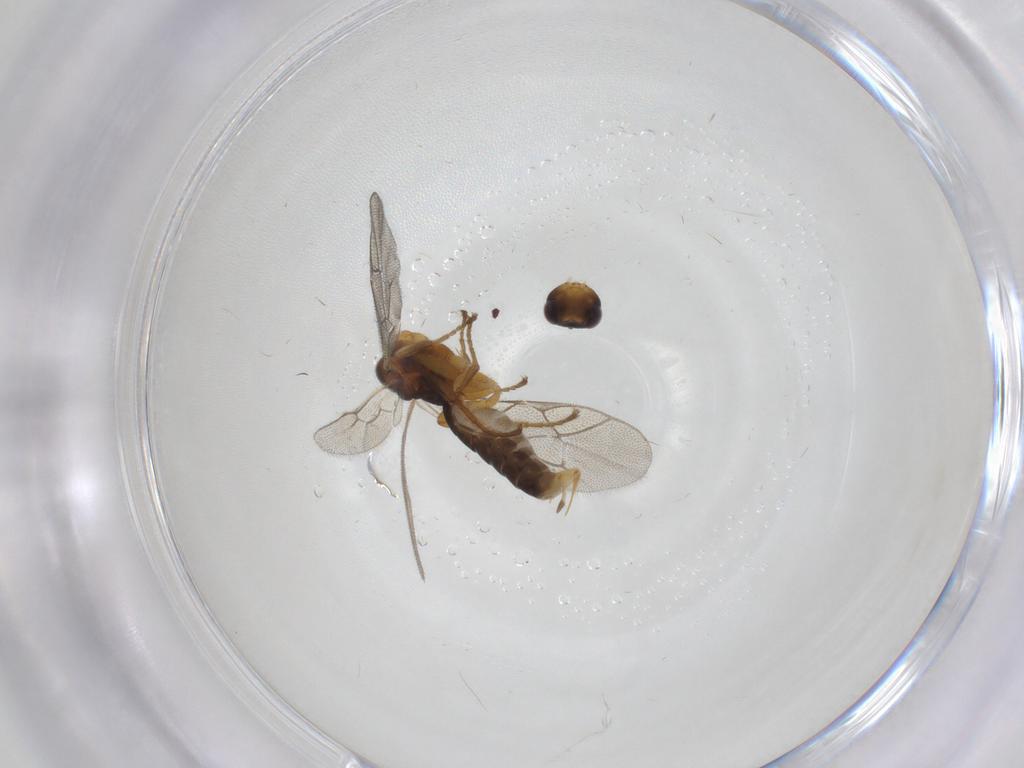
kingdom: Animalia
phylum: Arthropoda
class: Insecta
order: Hymenoptera
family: Ichneumonidae
